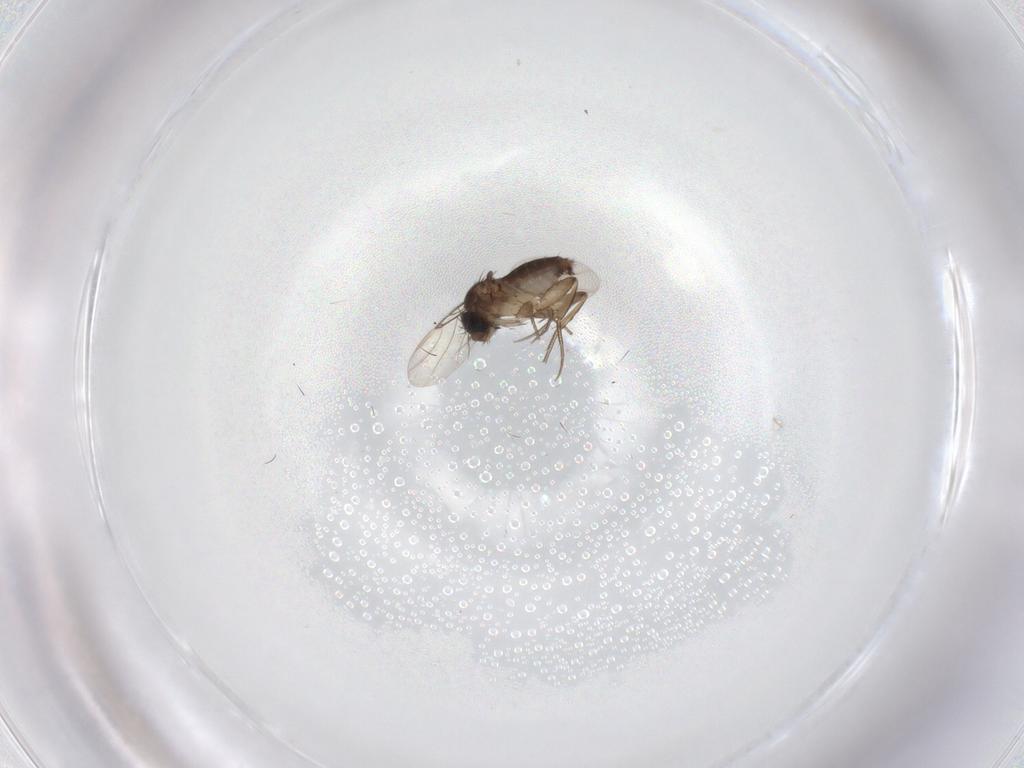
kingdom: Animalia
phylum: Arthropoda
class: Insecta
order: Diptera
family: Phoridae
